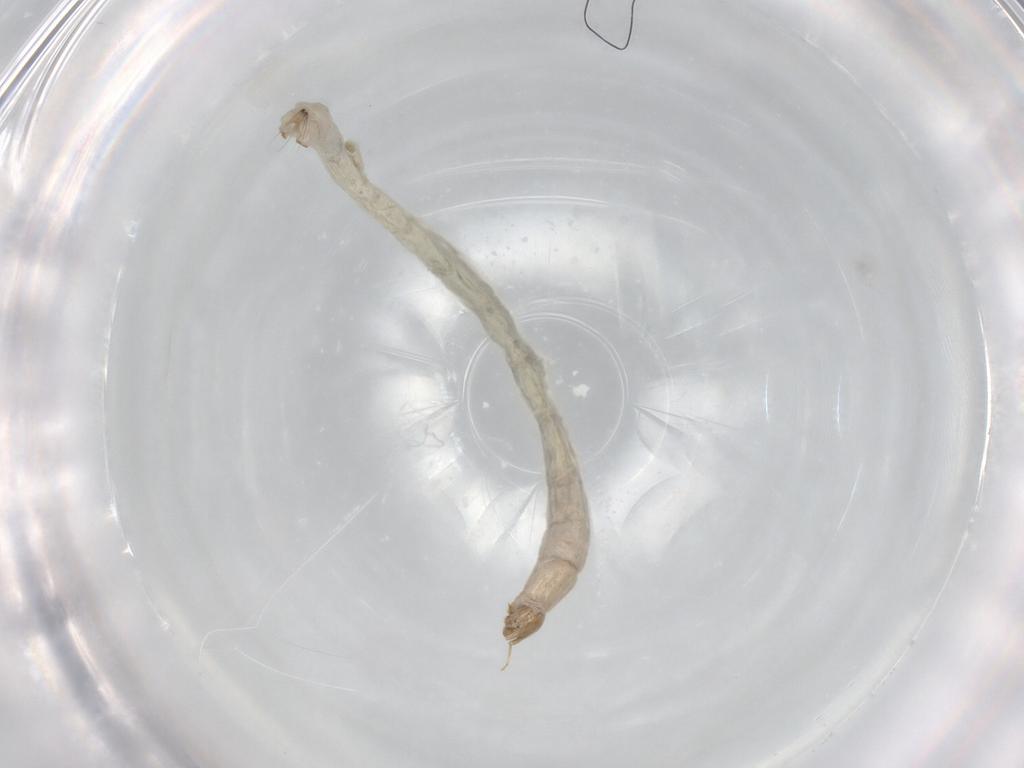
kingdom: Animalia
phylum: Arthropoda
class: Insecta
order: Diptera
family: Chironomidae
